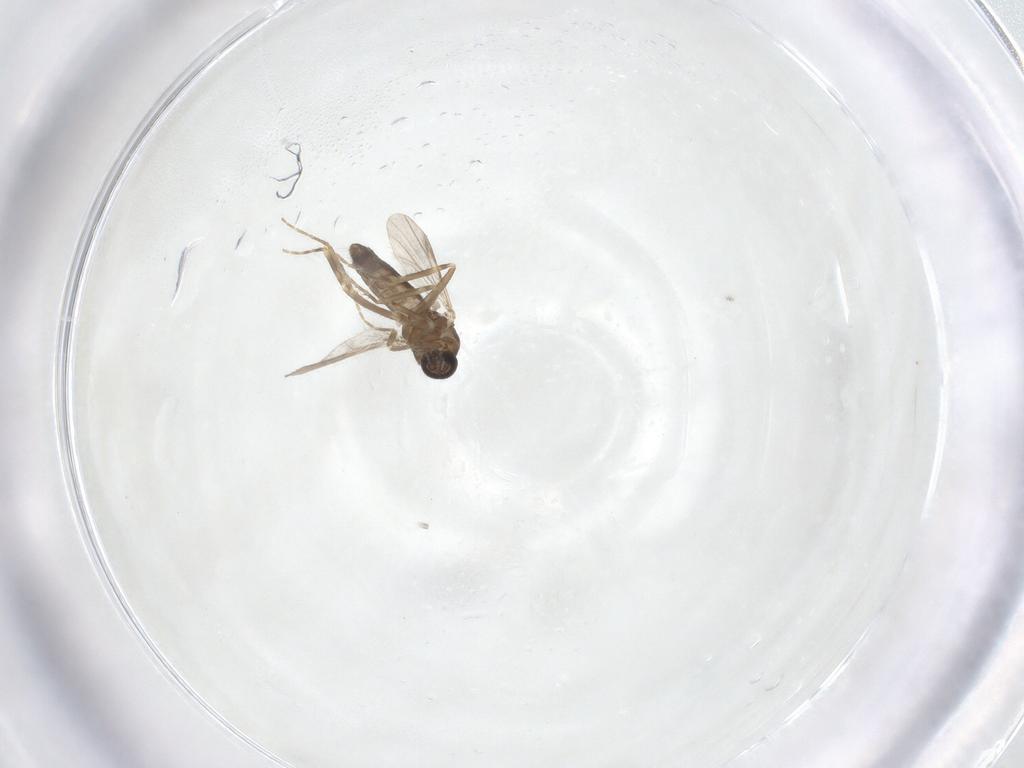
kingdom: Animalia
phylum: Arthropoda
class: Insecta
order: Diptera
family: Ceratopogonidae
